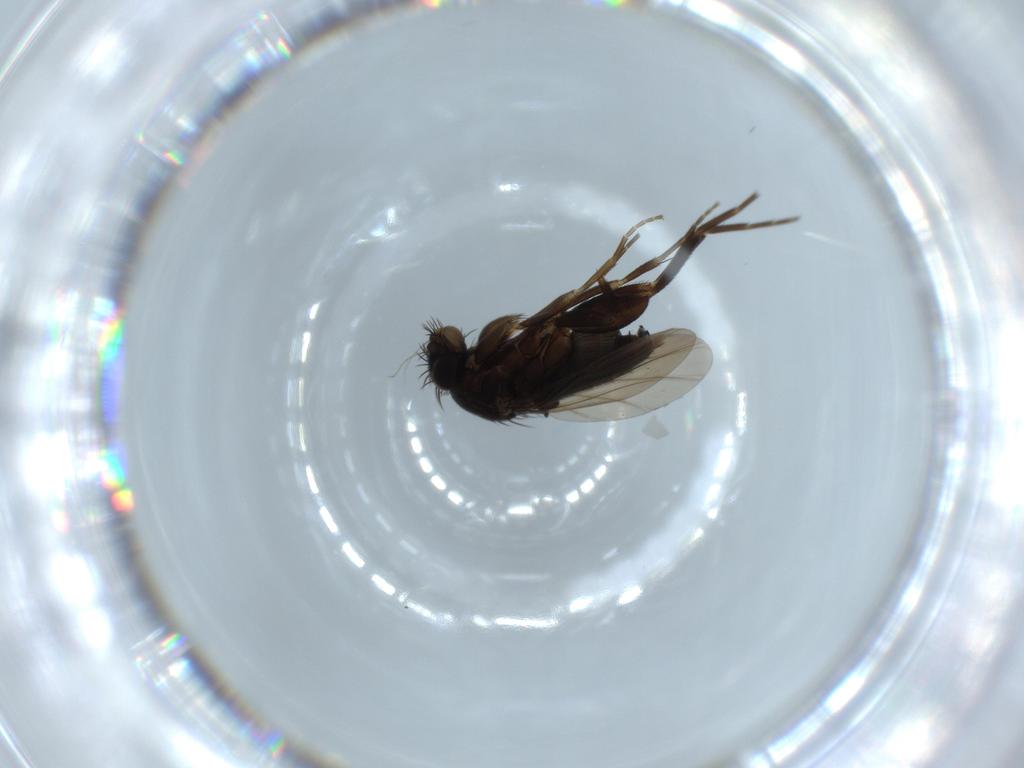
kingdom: Animalia
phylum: Arthropoda
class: Insecta
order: Diptera
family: Phoridae
